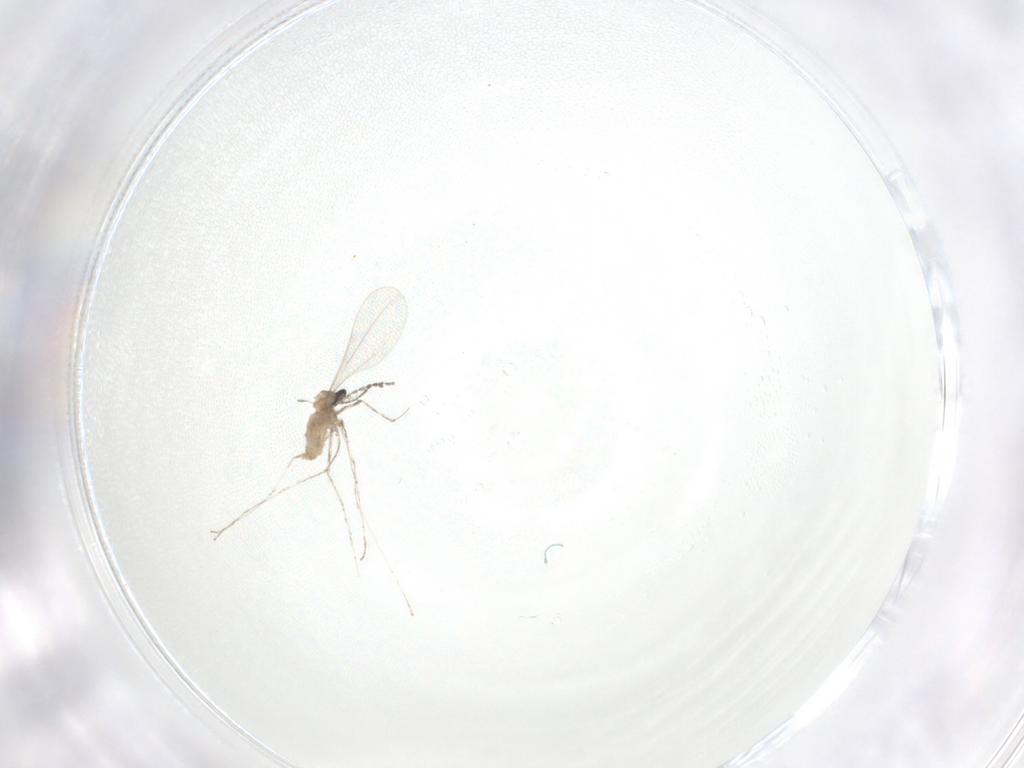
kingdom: Animalia
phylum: Arthropoda
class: Insecta
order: Diptera
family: Cecidomyiidae
